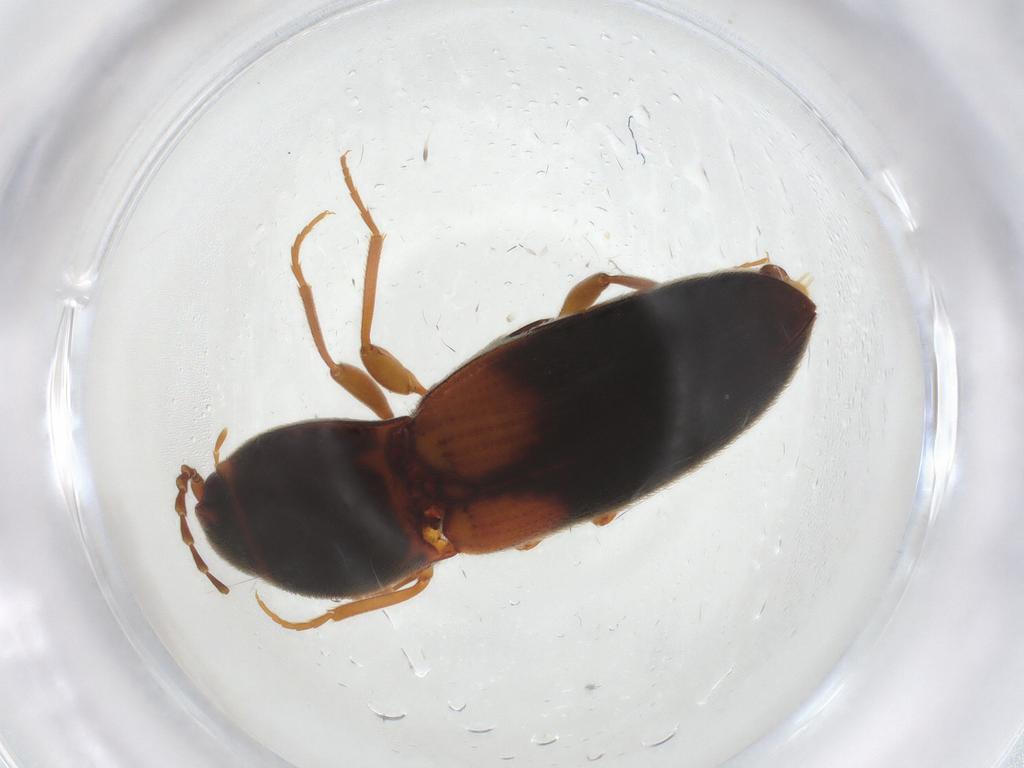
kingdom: Animalia
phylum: Arthropoda
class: Insecta
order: Coleoptera
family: Elateridae
